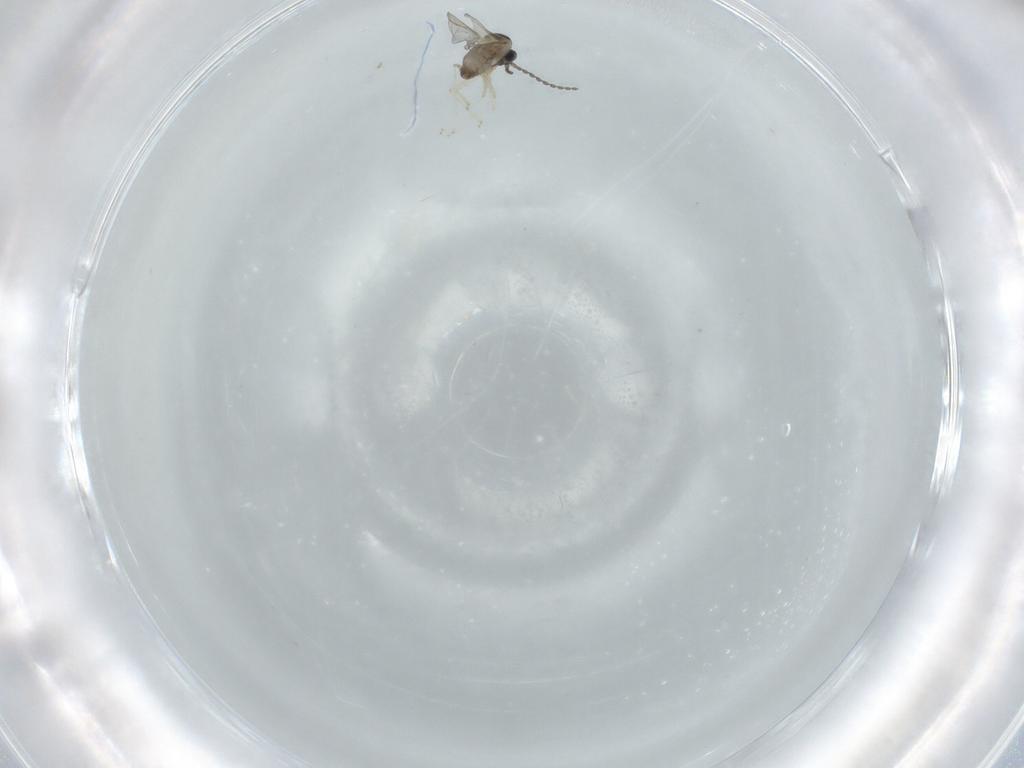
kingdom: Animalia
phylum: Arthropoda
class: Insecta
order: Diptera
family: Cecidomyiidae
